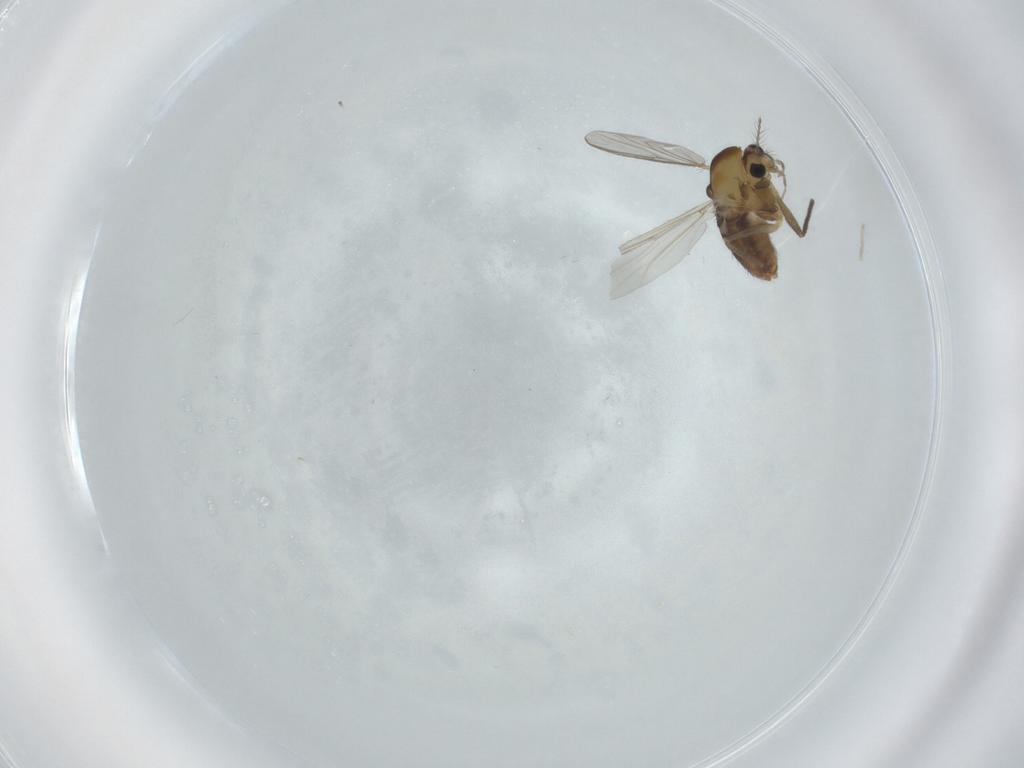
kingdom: Animalia
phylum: Arthropoda
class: Insecta
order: Diptera
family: Chironomidae
